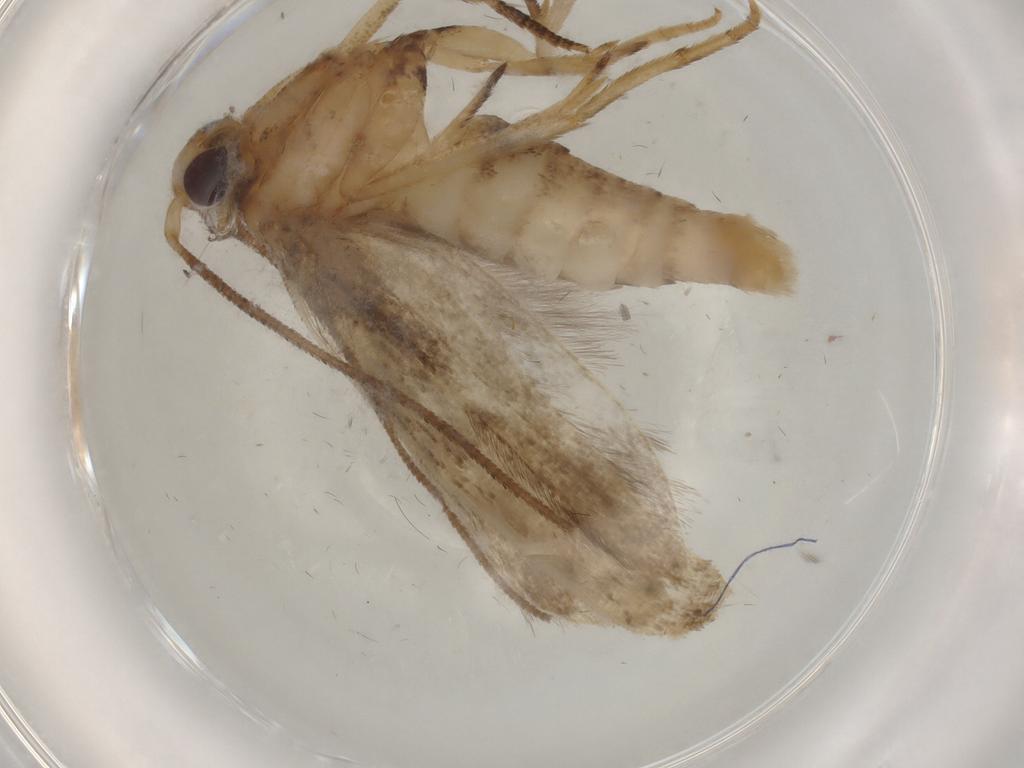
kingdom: Animalia
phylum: Arthropoda
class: Insecta
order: Lepidoptera
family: Yponomeutidae
